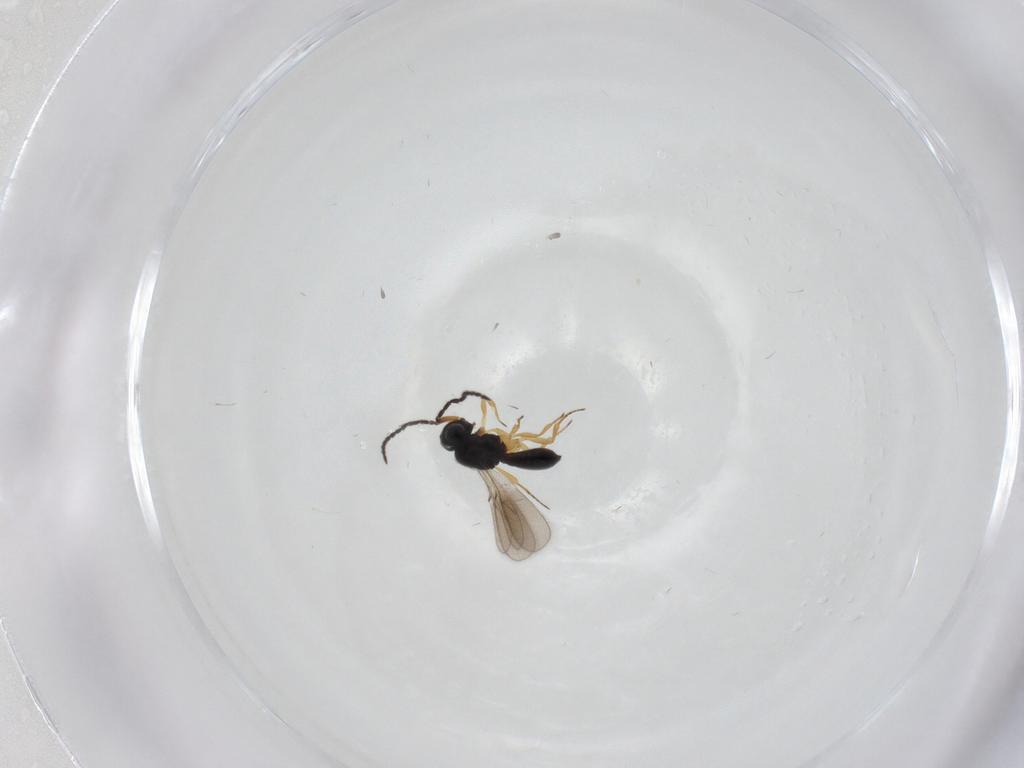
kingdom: Animalia
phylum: Arthropoda
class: Insecta
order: Hymenoptera
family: Scelionidae
